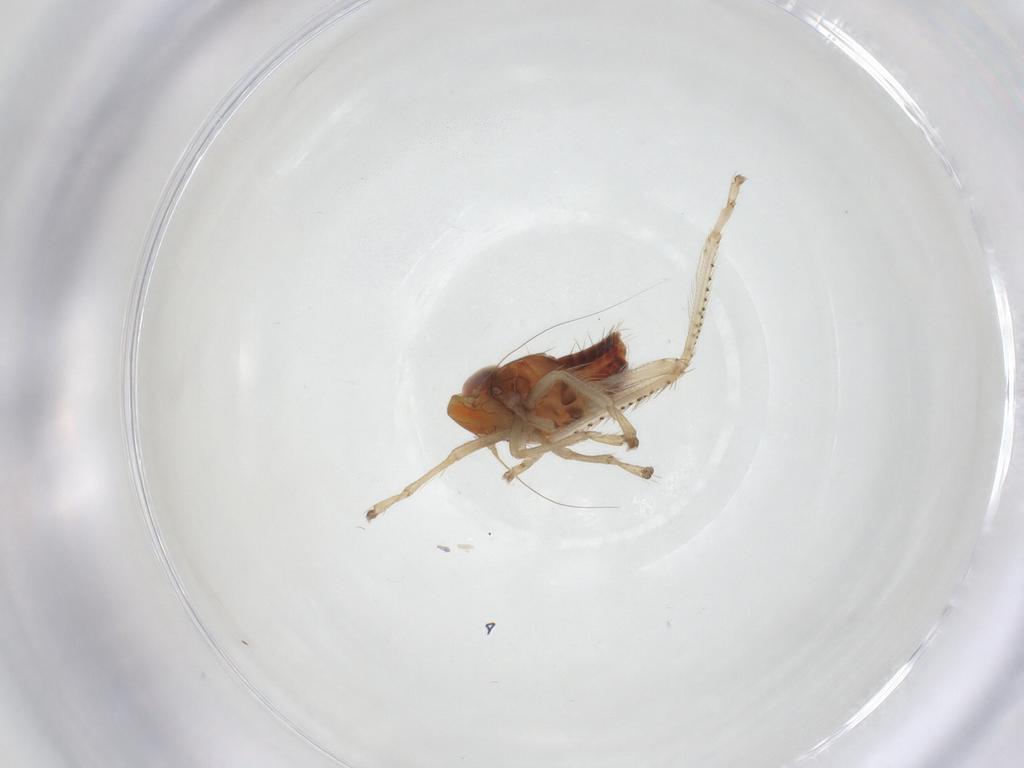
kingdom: Animalia
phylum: Arthropoda
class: Insecta
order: Hemiptera
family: Cicadellidae
